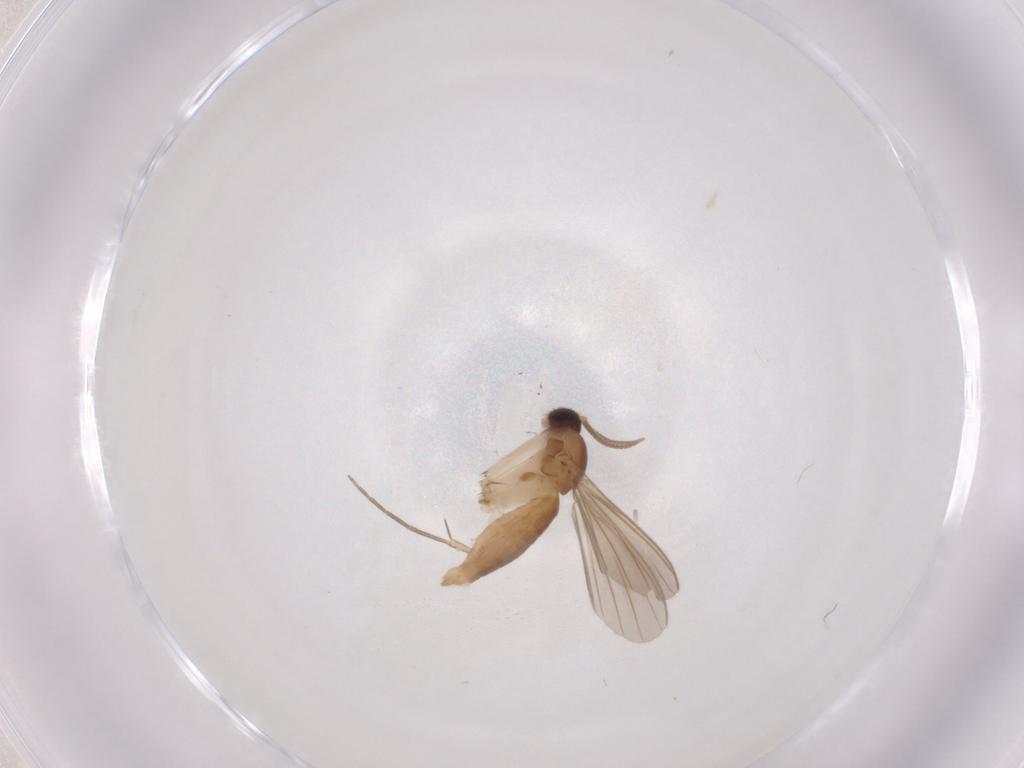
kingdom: Animalia
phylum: Arthropoda
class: Insecta
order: Diptera
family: Mycetophilidae
